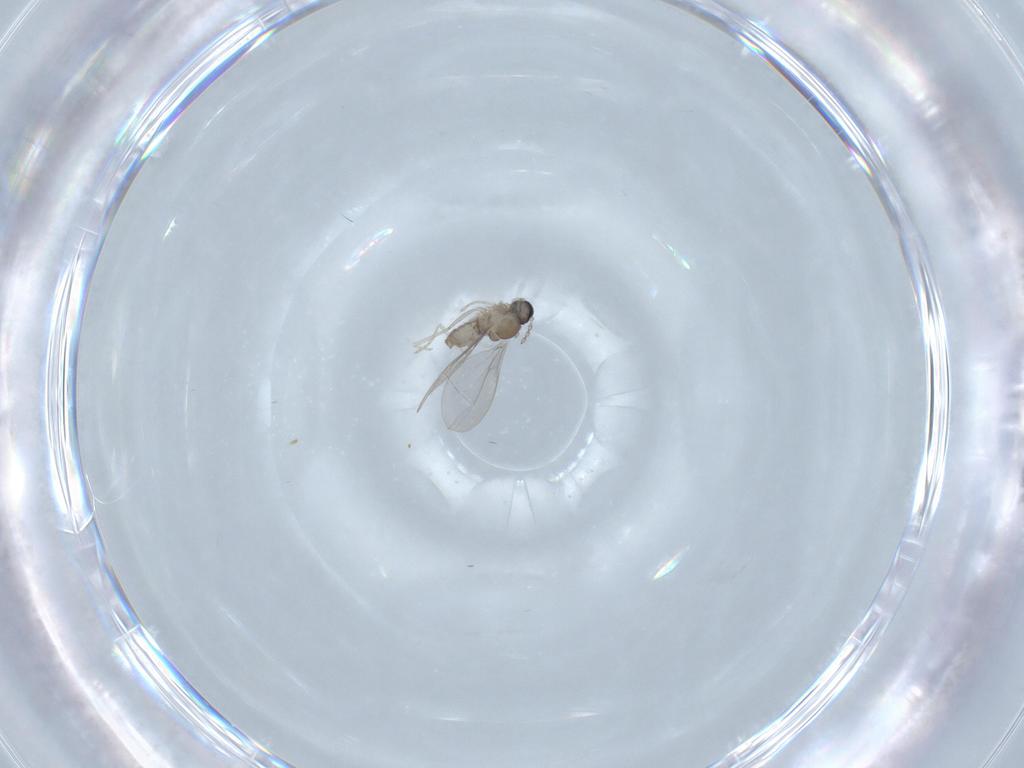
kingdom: Animalia
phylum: Arthropoda
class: Insecta
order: Diptera
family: Cecidomyiidae
